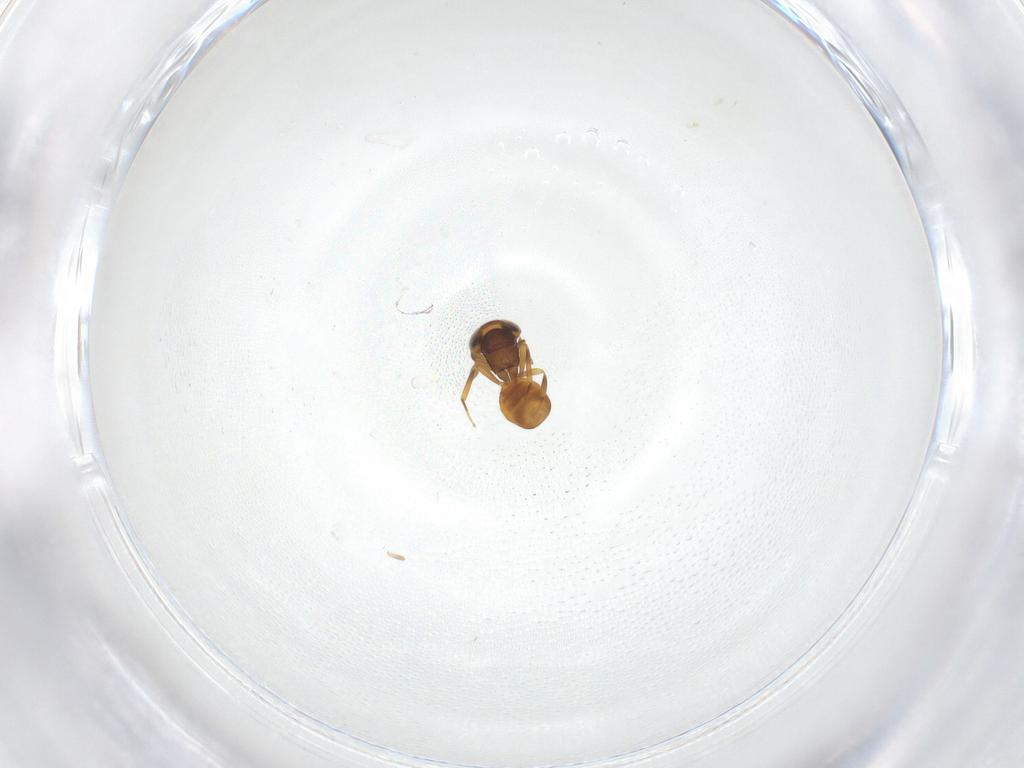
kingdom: Animalia
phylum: Arthropoda
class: Insecta
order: Hymenoptera
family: Scelionidae
